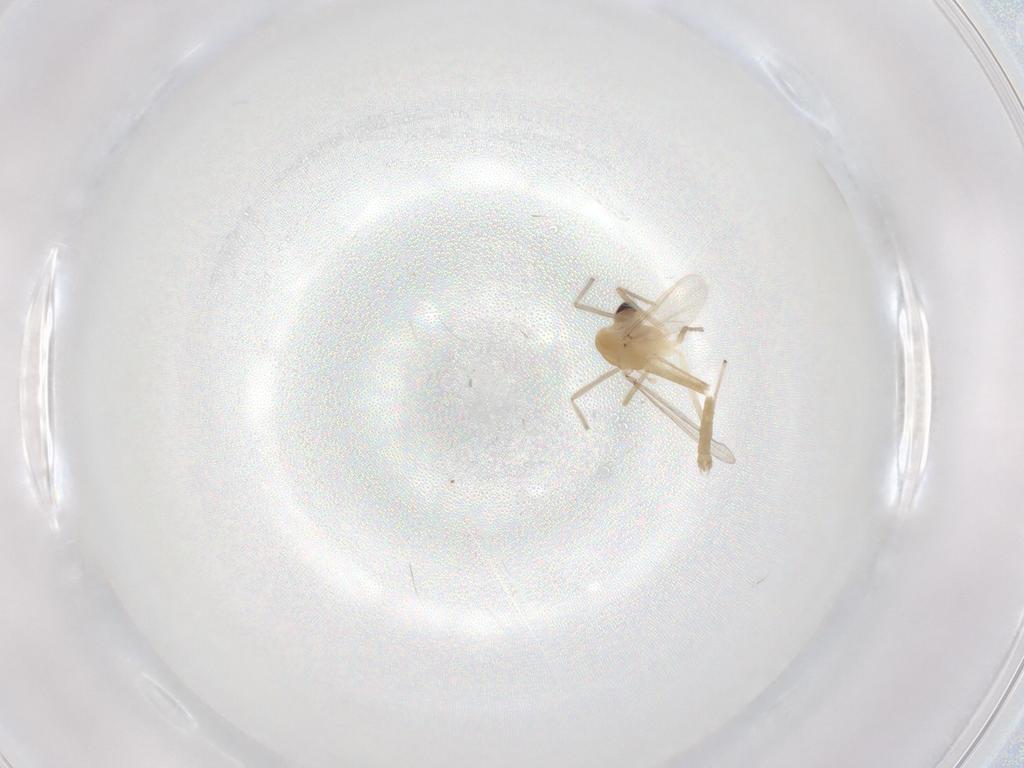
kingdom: Animalia
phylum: Arthropoda
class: Insecta
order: Diptera
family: Chironomidae
